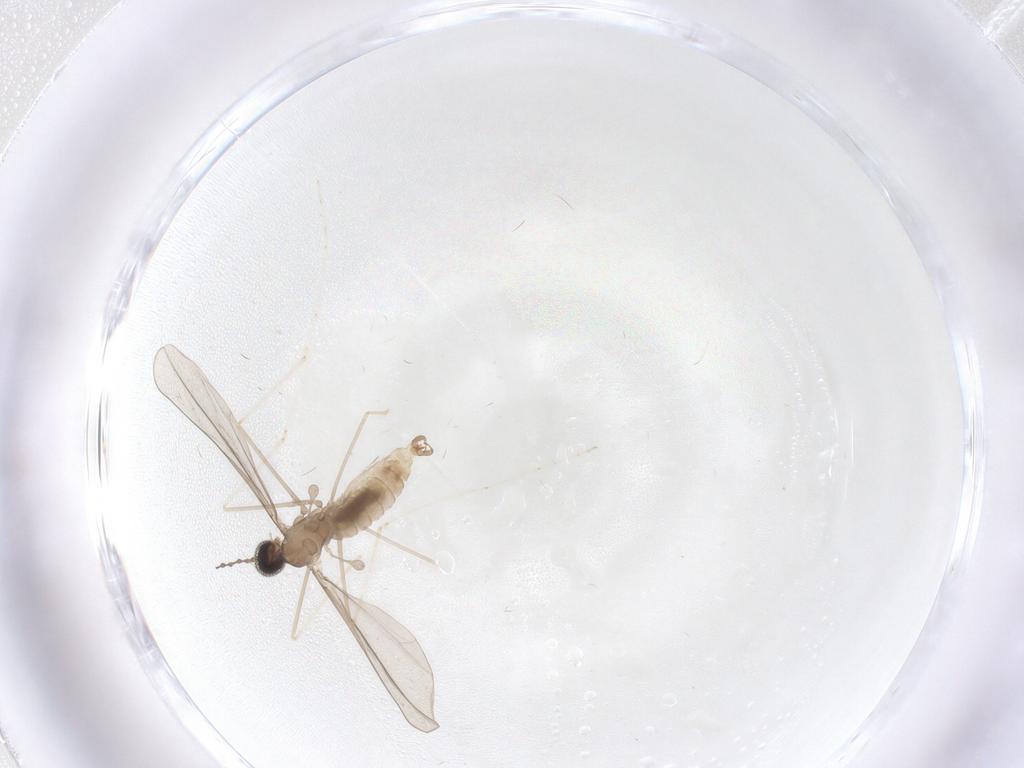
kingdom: Animalia
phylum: Arthropoda
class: Insecta
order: Diptera
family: Cecidomyiidae
